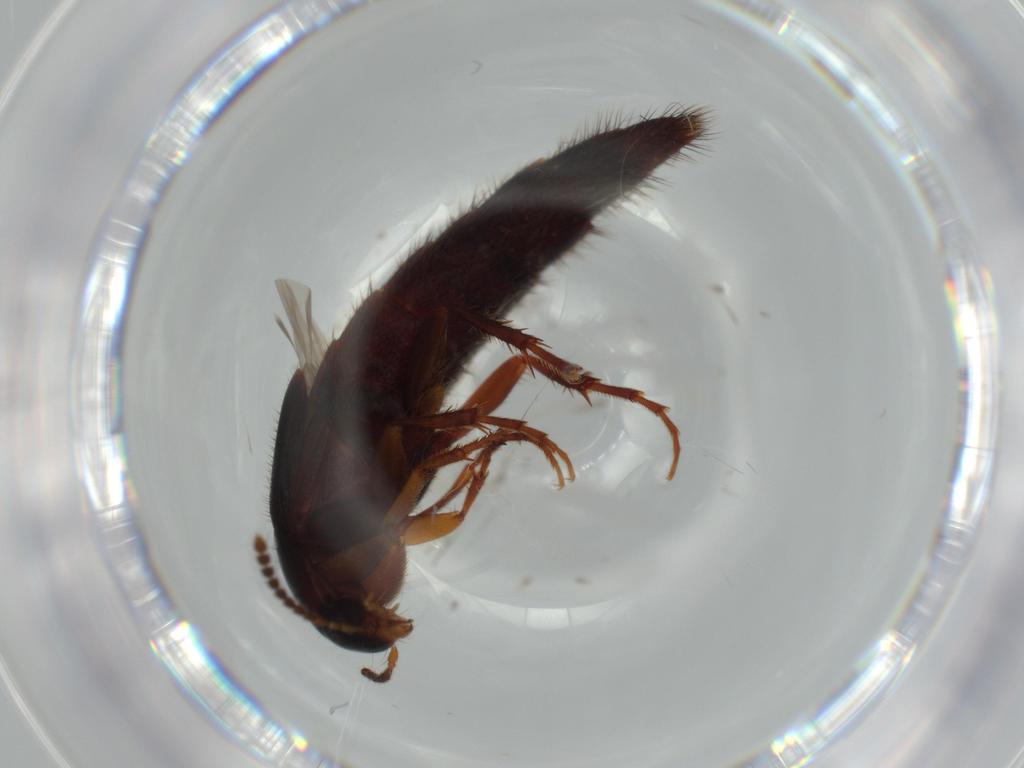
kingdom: Animalia
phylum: Arthropoda
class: Insecta
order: Coleoptera
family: Staphylinidae
